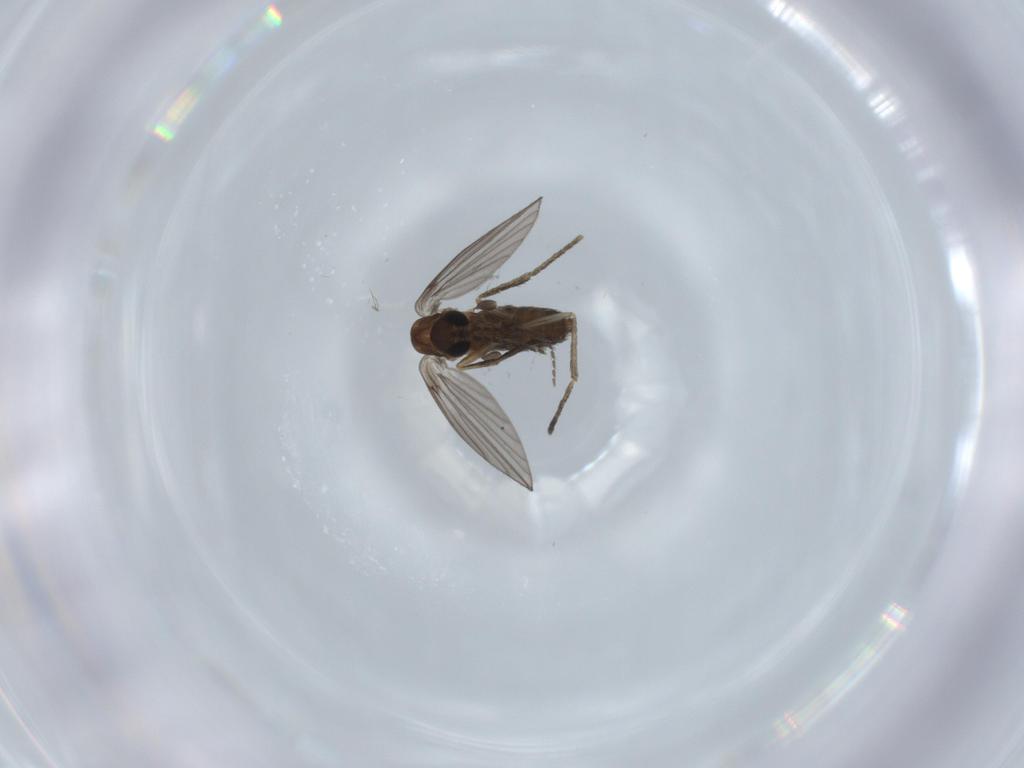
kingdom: Animalia
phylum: Arthropoda
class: Insecta
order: Diptera
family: Psychodidae
